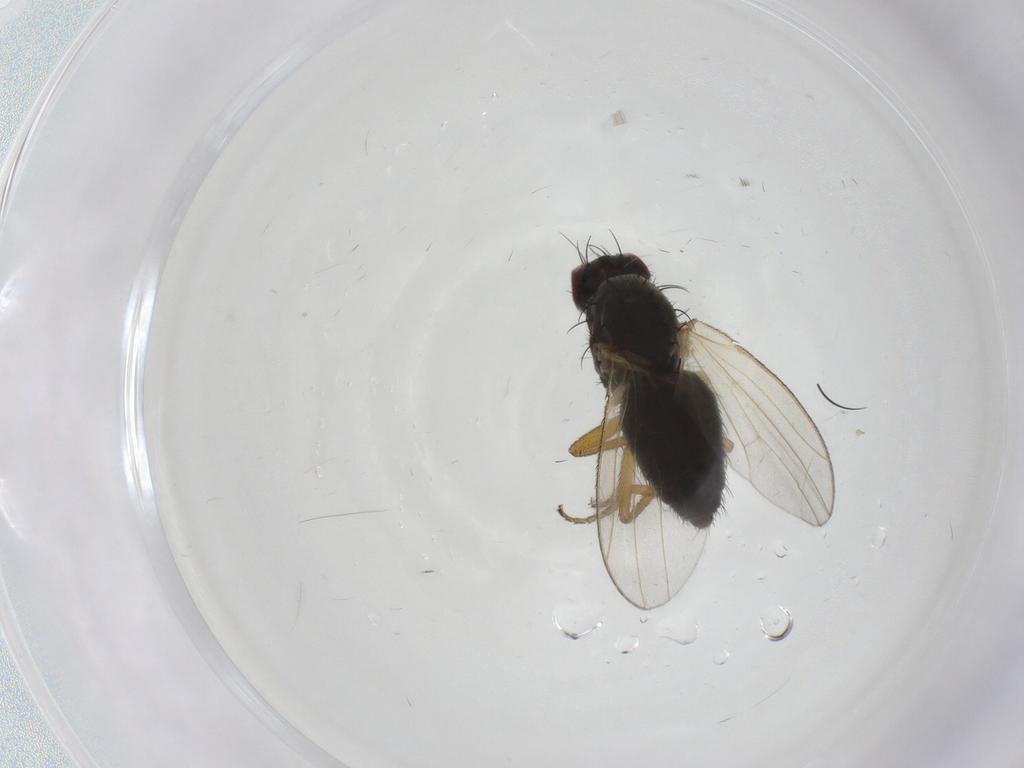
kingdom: Animalia
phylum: Arthropoda
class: Insecta
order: Diptera
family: Heleomyzidae
